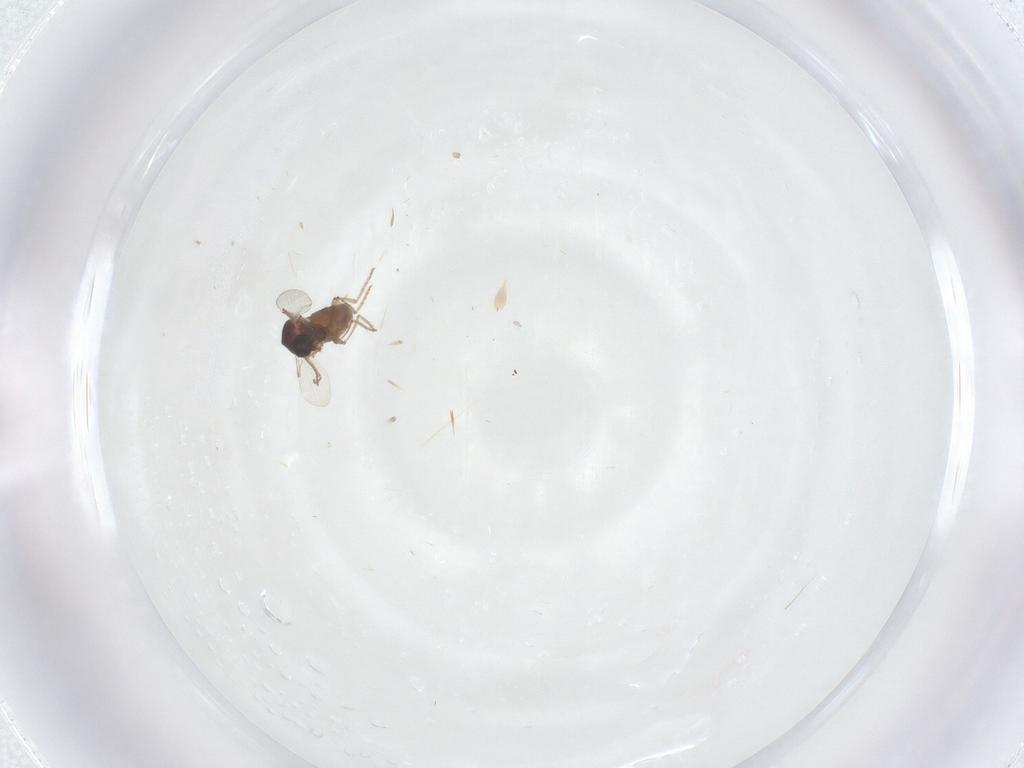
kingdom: Animalia
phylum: Arthropoda
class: Insecta
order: Diptera
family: Ceratopogonidae
